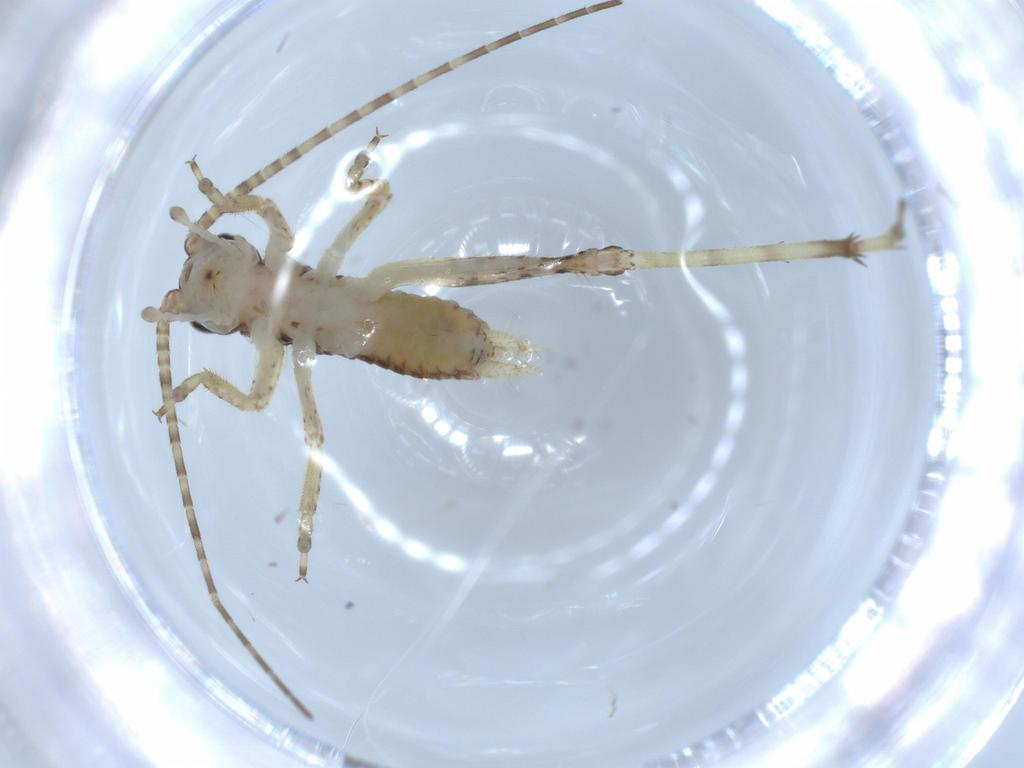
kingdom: Animalia
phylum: Arthropoda
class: Insecta
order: Orthoptera
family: Gryllidae
